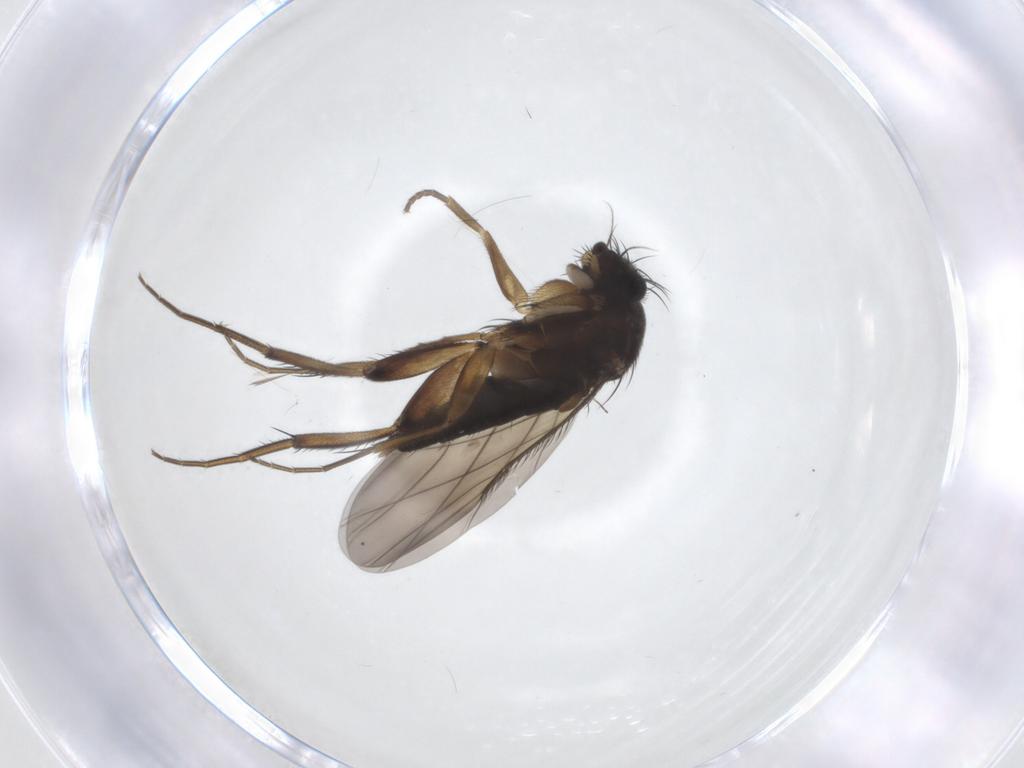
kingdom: Animalia
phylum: Arthropoda
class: Insecta
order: Diptera
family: Phoridae
